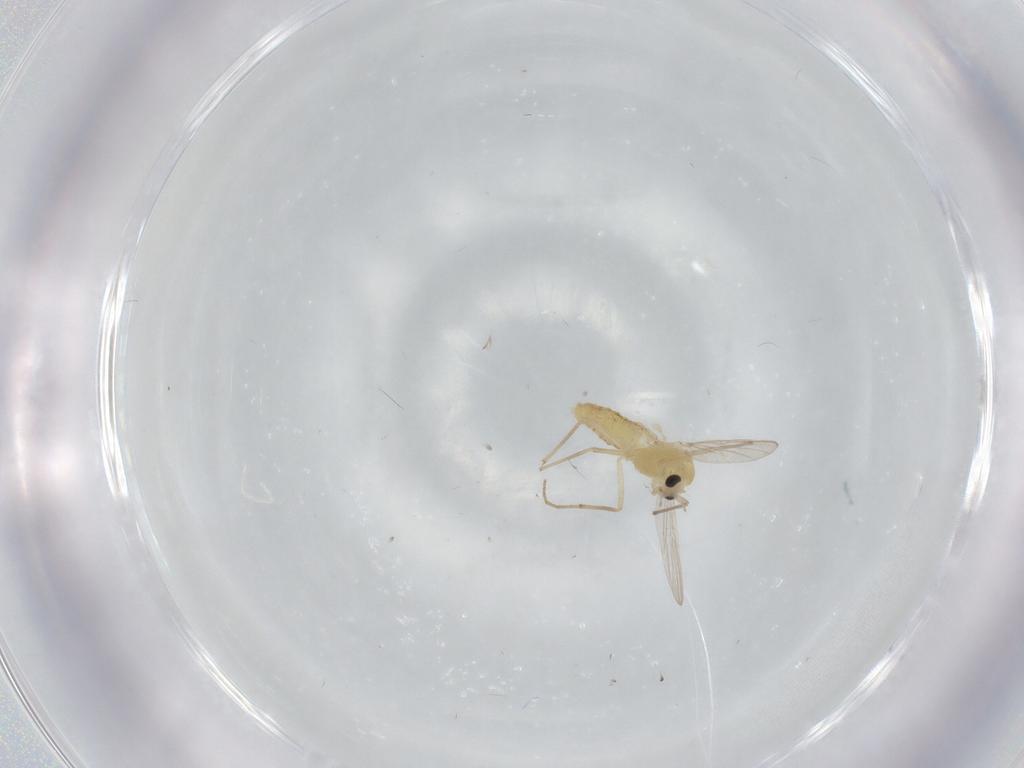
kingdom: Animalia
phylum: Arthropoda
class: Insecta
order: Diptera
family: Chironomidae
